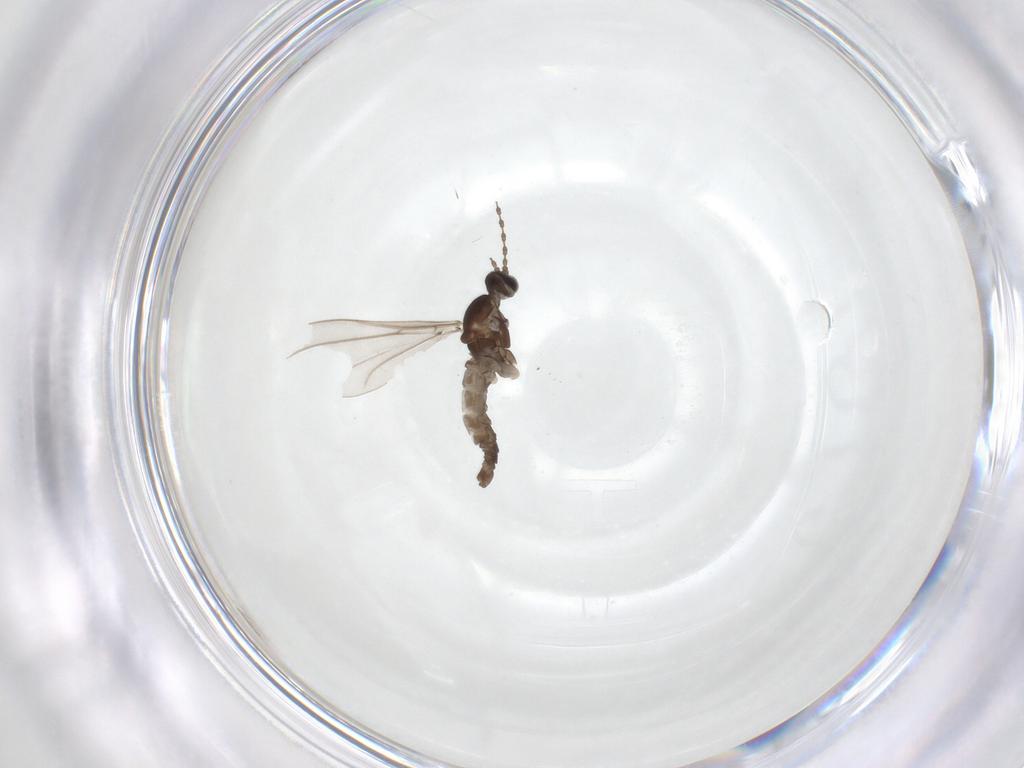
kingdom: Animalia
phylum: Arthropoda
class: Insecta
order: Diptera
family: Cecidomyiidae
